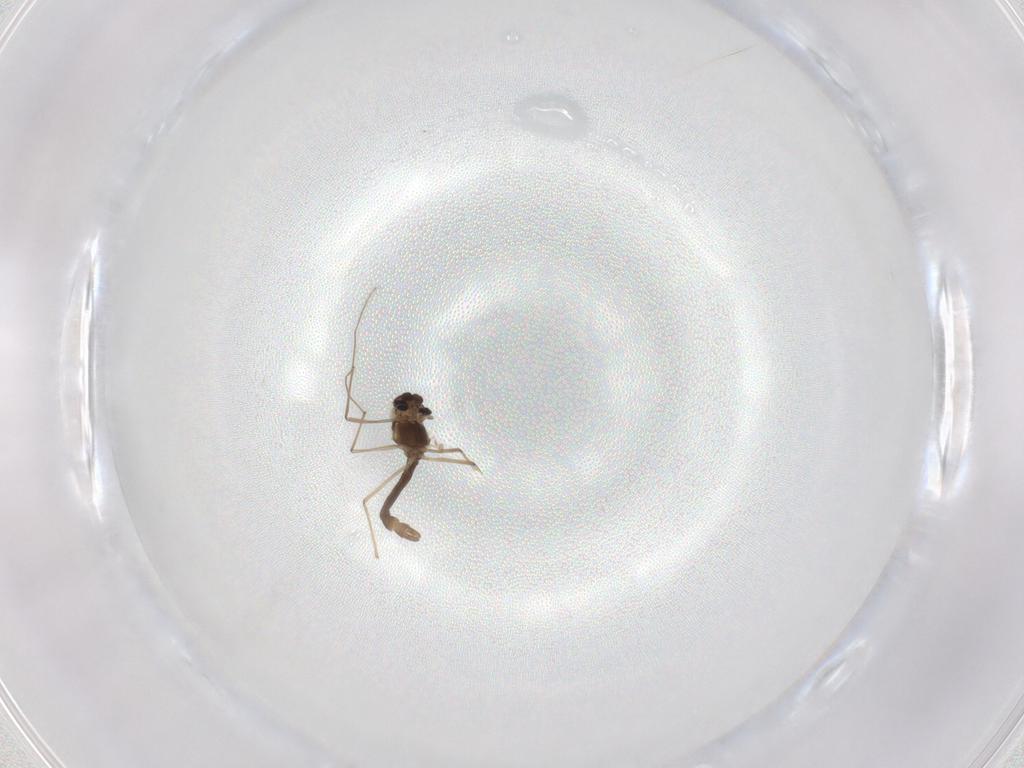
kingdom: Animalia
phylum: Arthropoda
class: Insecta
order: Diptera
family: Chironomidae
